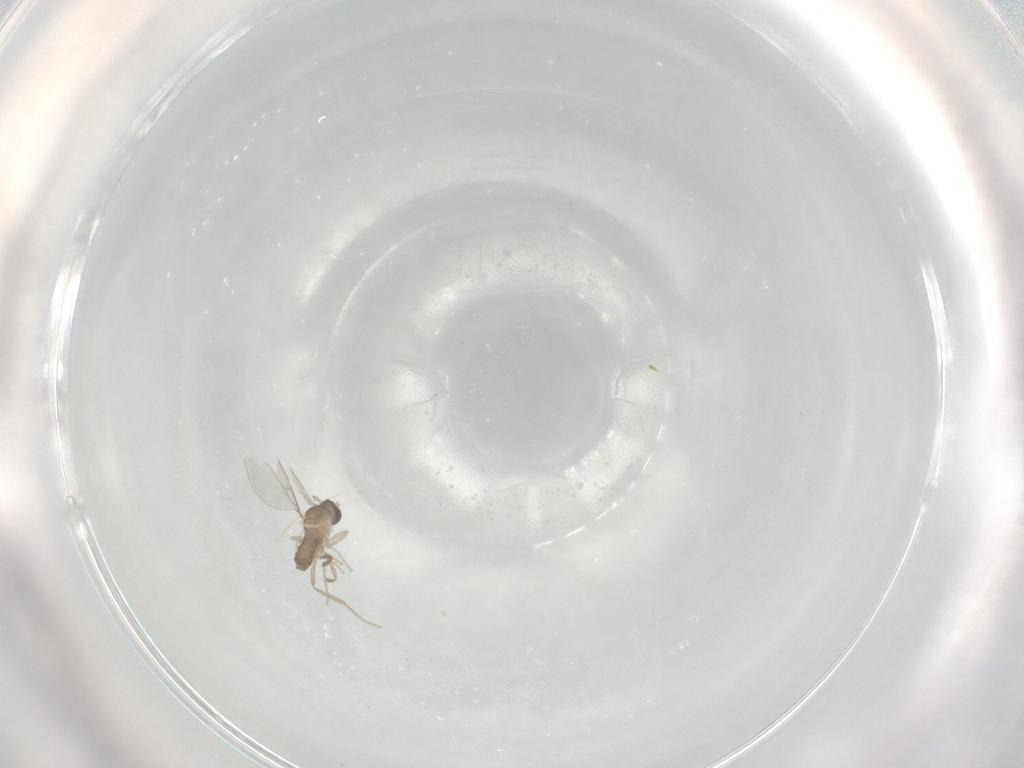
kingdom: Animalia
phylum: Arthropoda
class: Insecta
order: Diptera
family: Cecidomyiidae
